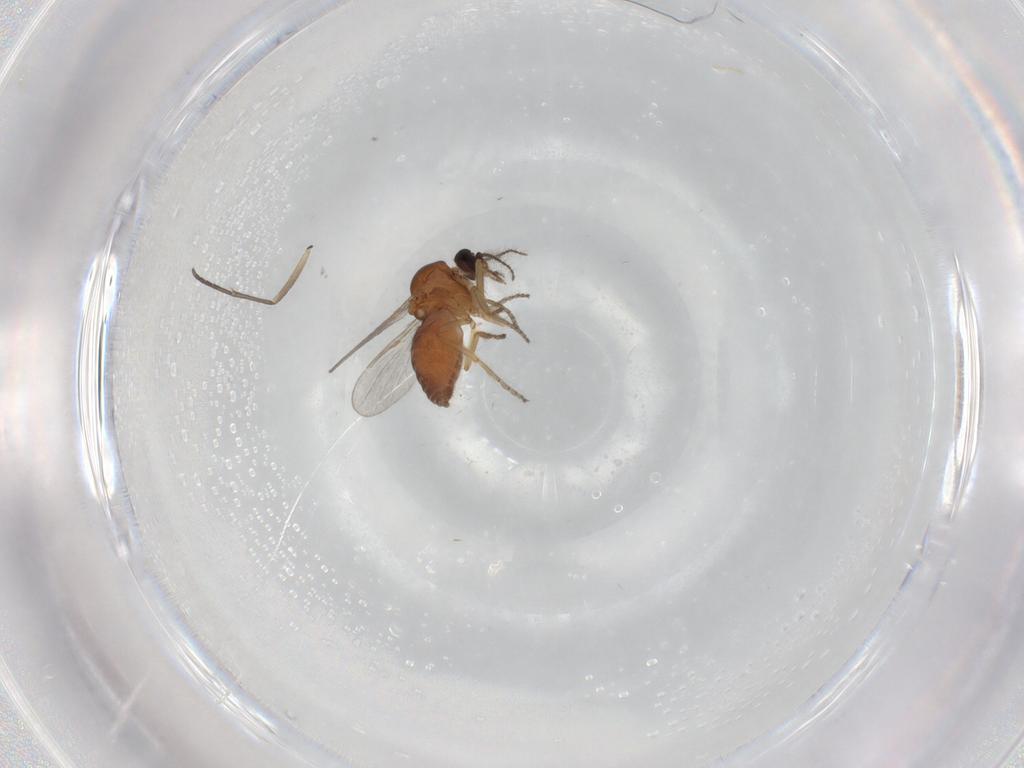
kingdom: Animalia
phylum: Arthropoda
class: Insecta
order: Diptera
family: Ceratopogonidae
